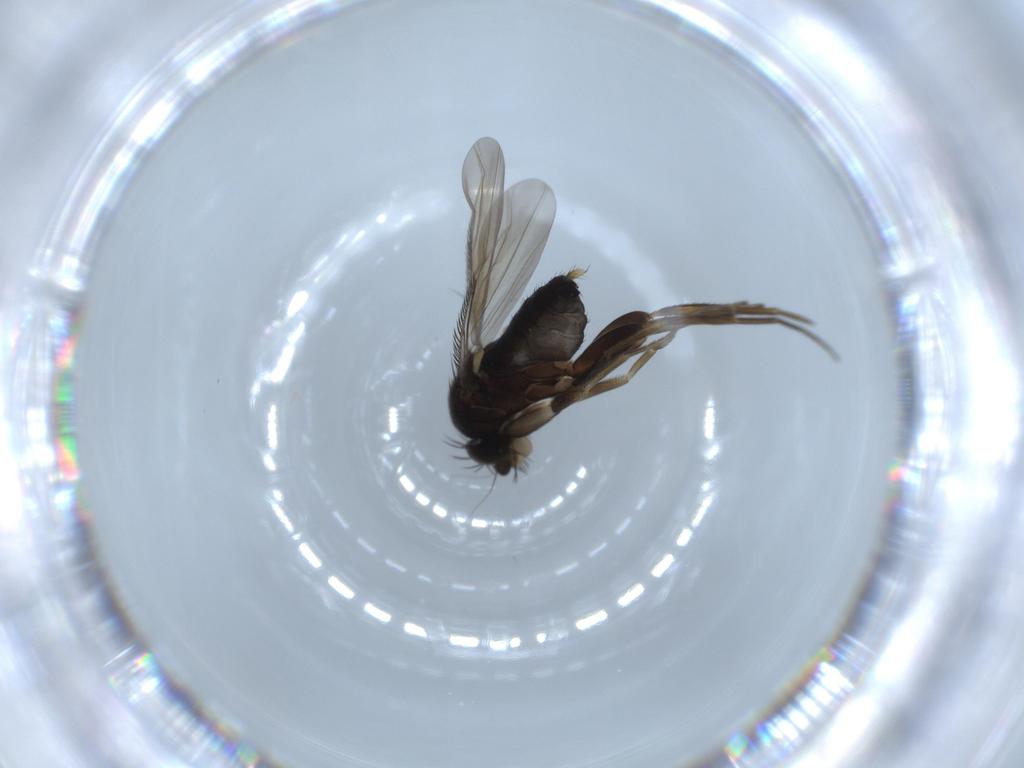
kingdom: Animalia
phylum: Arthropoda
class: Insecta
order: Diptera
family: Phoridae
